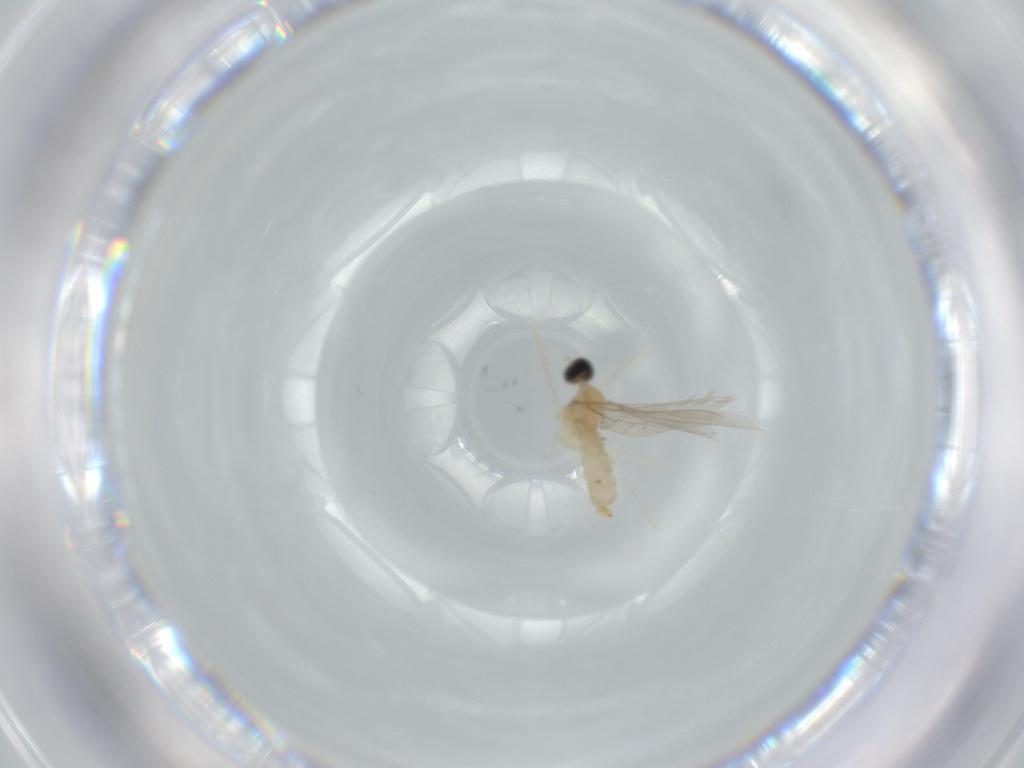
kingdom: Animalia
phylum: Arthropoda
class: Insecta
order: Diptera
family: Cecidomyiidae
